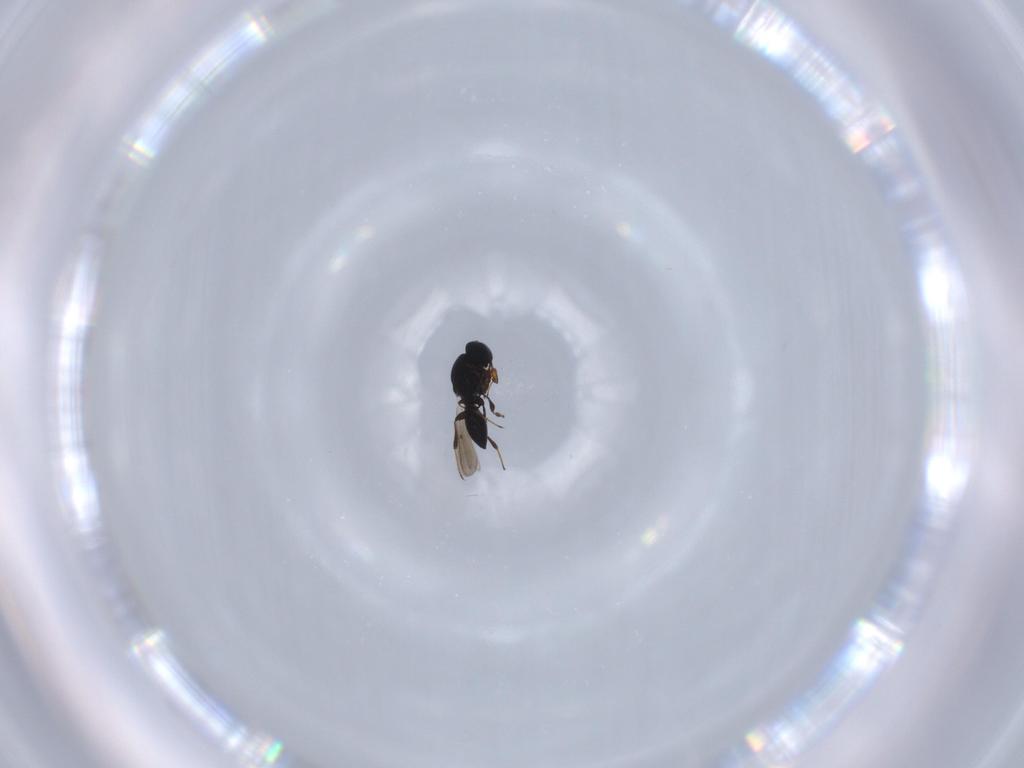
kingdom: Animalia
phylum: Arthropoda
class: Insecta
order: Hymenoptera
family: Platygastridae
